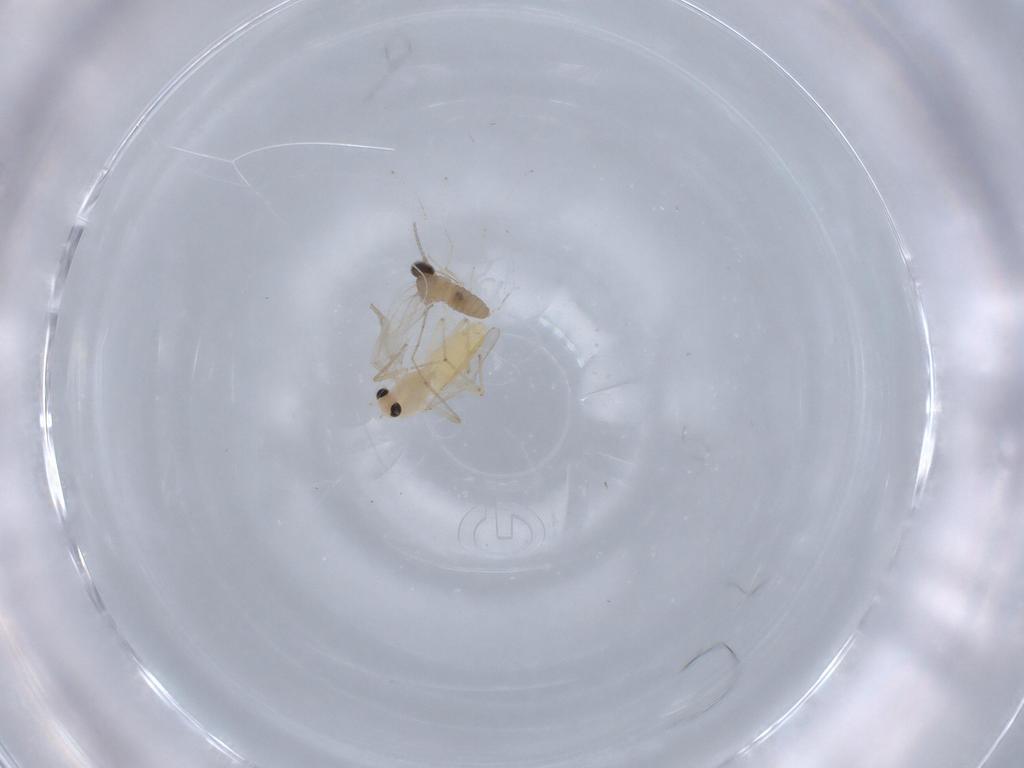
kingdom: Animalia
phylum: Arthropoda
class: Insecta
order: Diptera
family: Chironomidae
